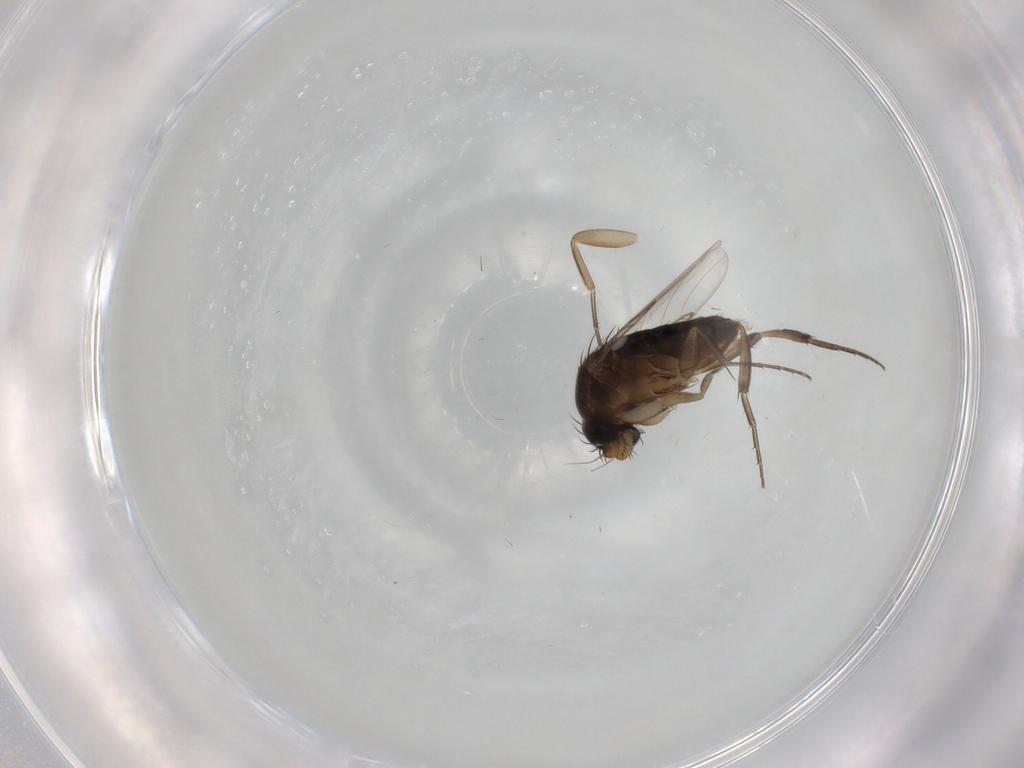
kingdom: Animalia
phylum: Arthropoda
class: Insecta
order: Diptera
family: Phoridae
